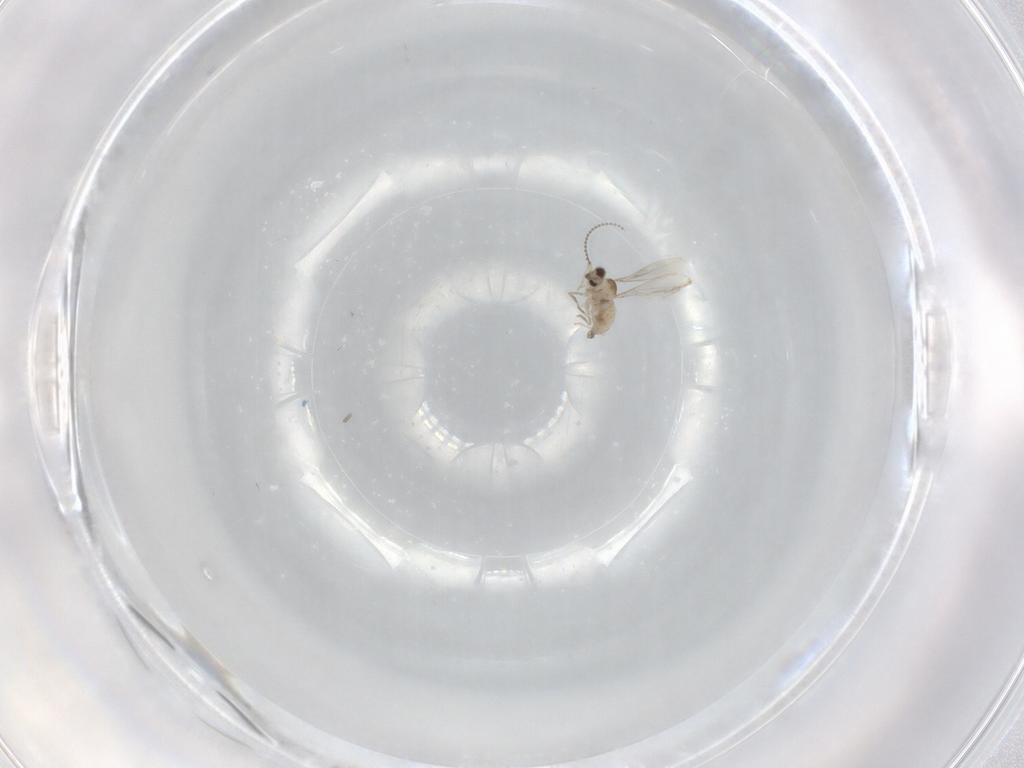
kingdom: Animalia
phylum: Arthropoda
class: Insecta
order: Diptera
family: Cecidomyiidae
